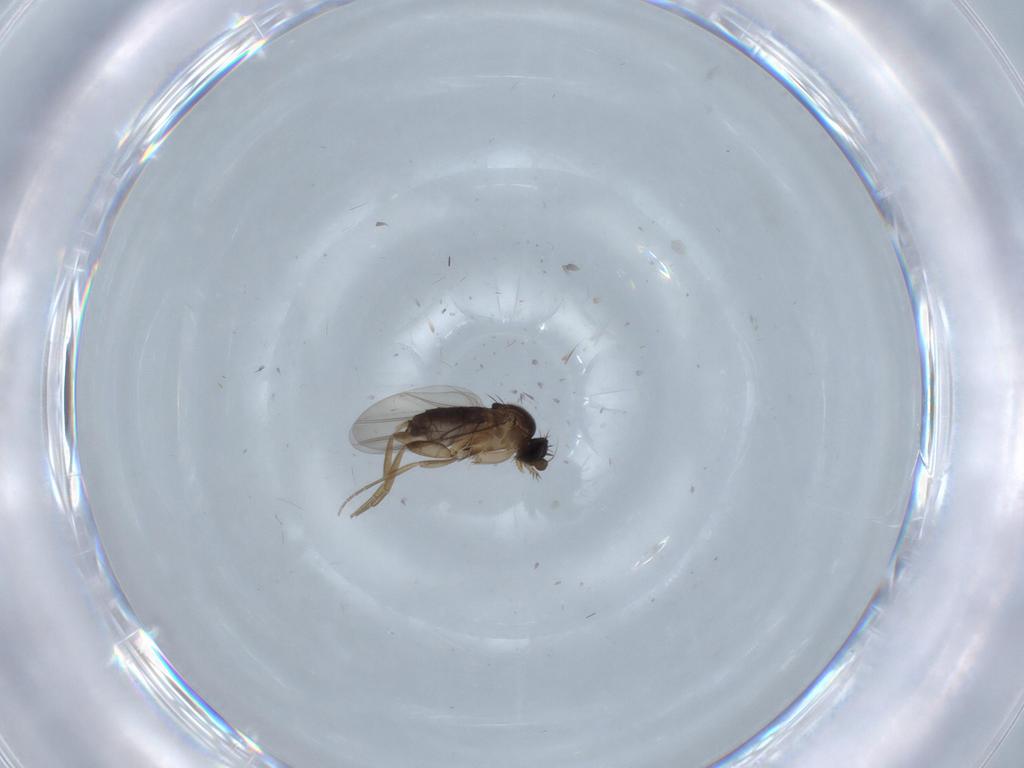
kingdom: Animalia
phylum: Arthropoda
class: Insecta
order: Diptera
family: Phoridae
